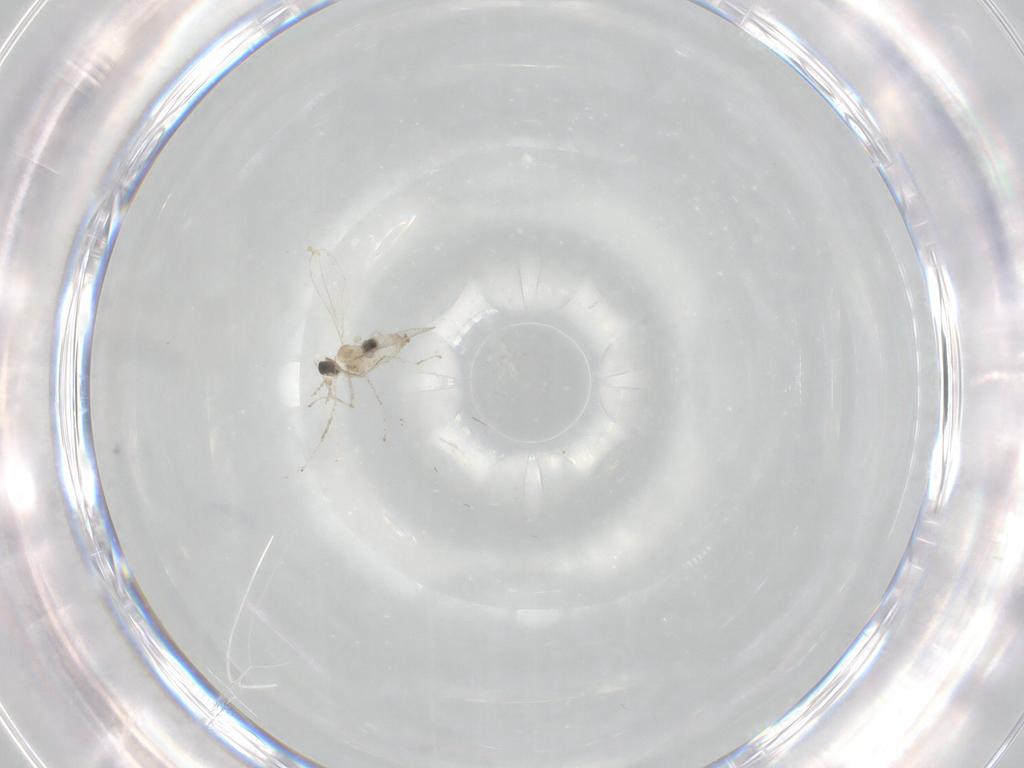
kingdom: Animalia
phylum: Arthropoda
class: Insecta
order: Diptera
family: Cecidomyiidae
